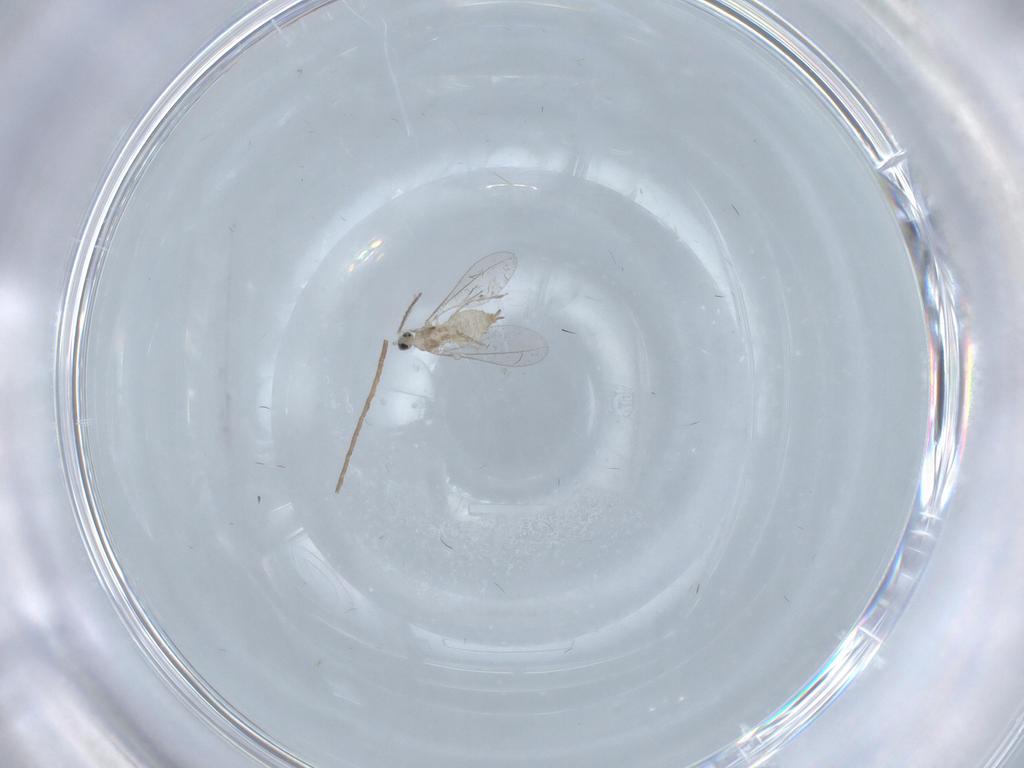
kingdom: Animalia
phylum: Arthropoda
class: Insecta
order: Diptera
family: Cecidomyiidae
